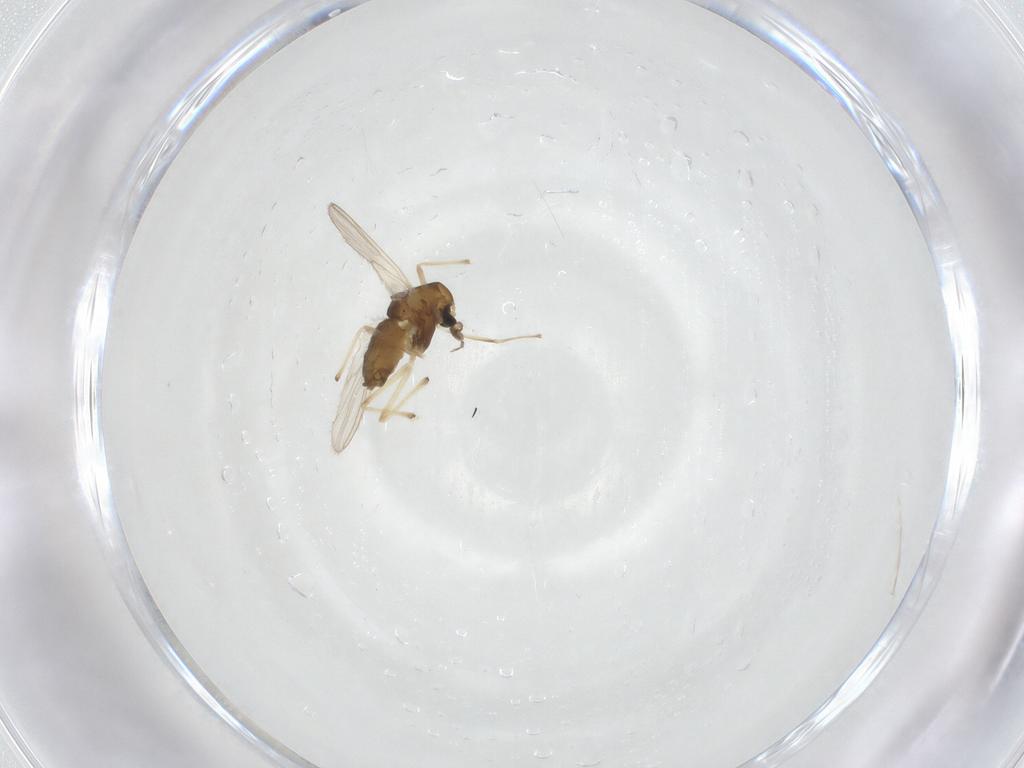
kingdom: Animalia
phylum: Arthropoda
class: Insecta
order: Diptera
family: Chironomidae
